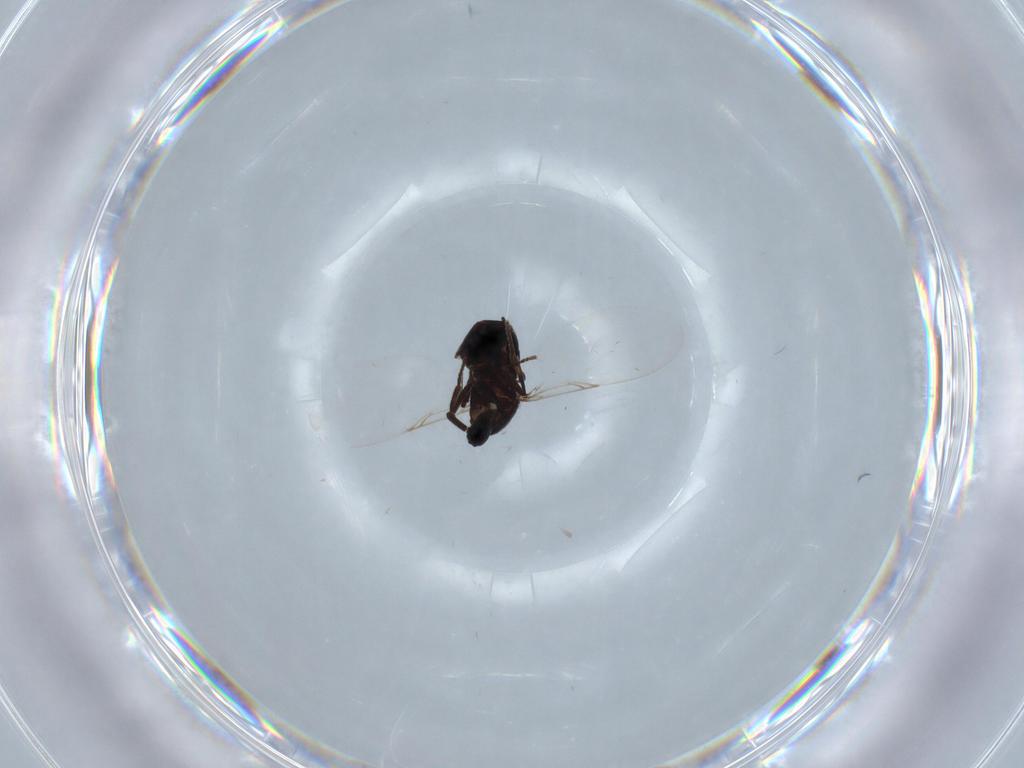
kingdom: Animalia
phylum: Arthropoda
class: Insecta
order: Diptera
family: Scatopsidae
